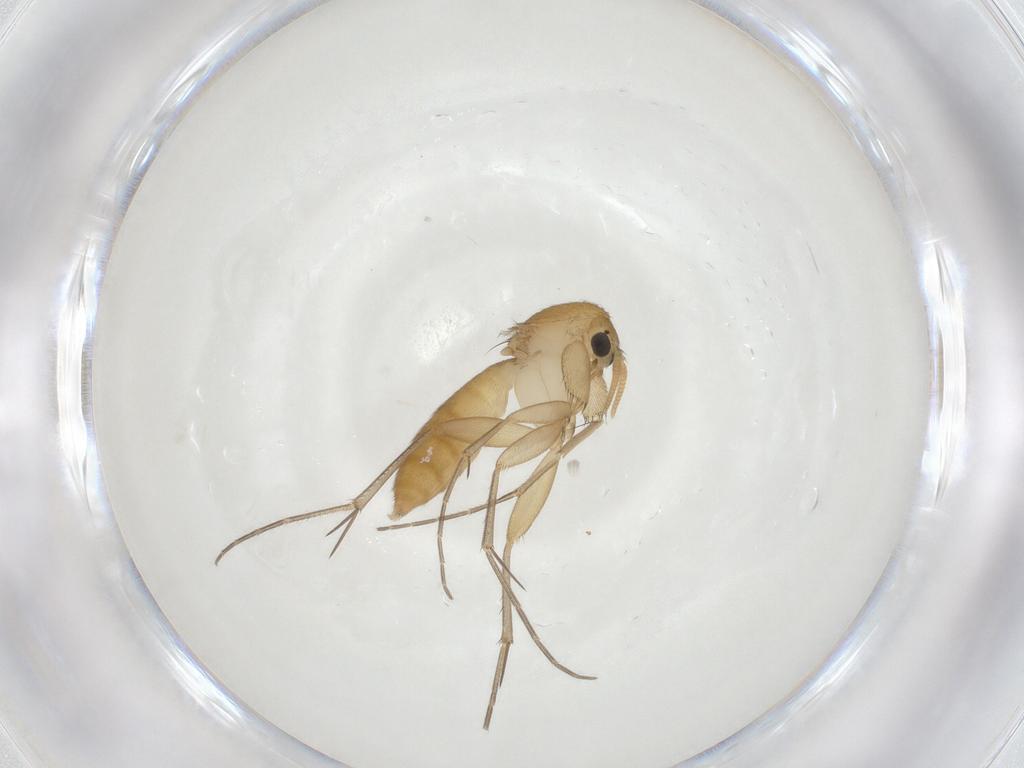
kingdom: Animalia
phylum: Arthropoda
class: Insecta
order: Diptera
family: Mycetophilidae
